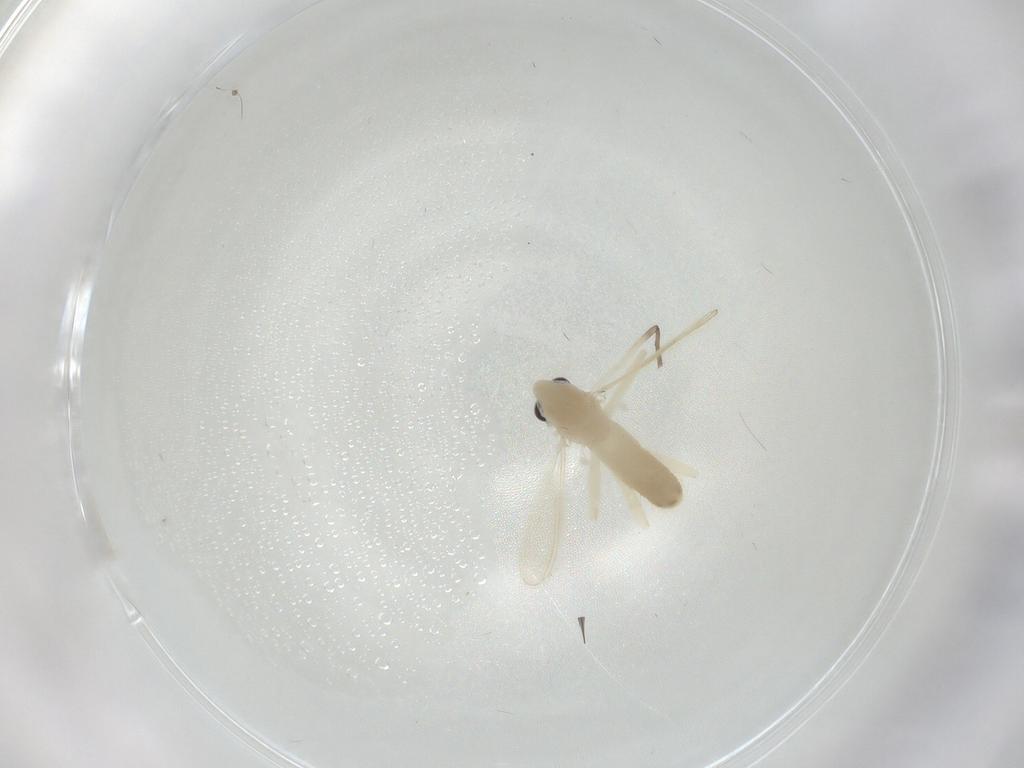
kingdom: Animalia
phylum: Arthropoda
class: Insecta
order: Diptera
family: Chironomidae
